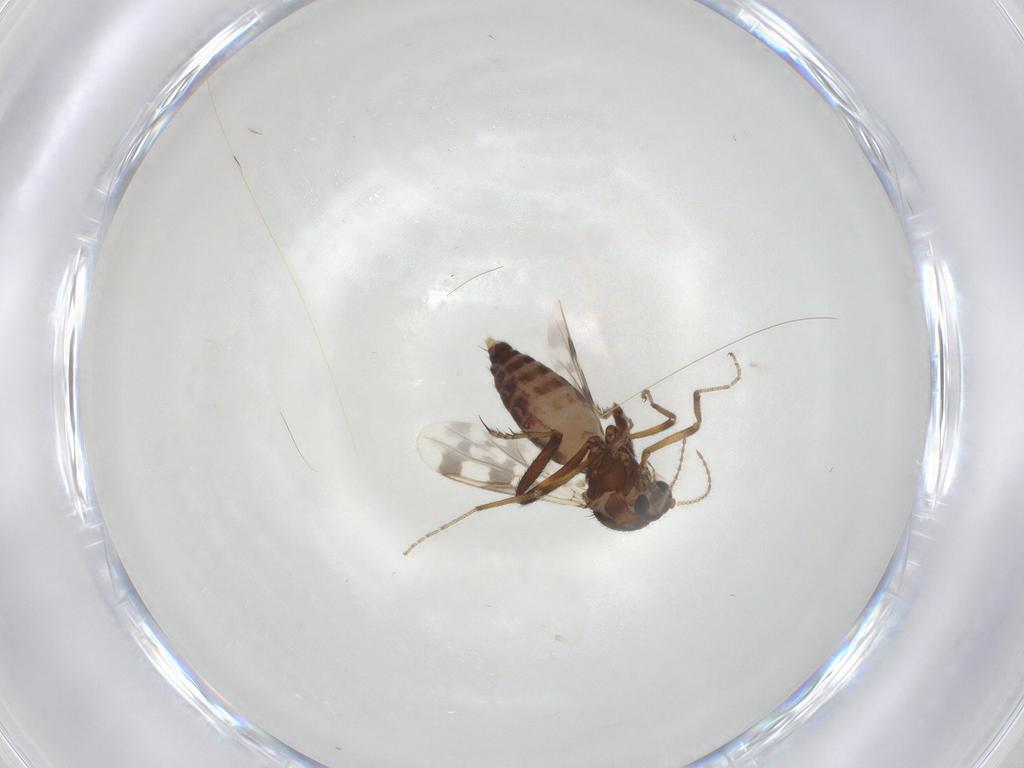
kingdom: Animalia
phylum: Arthropoda
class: Insecta
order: Diptera
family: Ceratopogonidae
